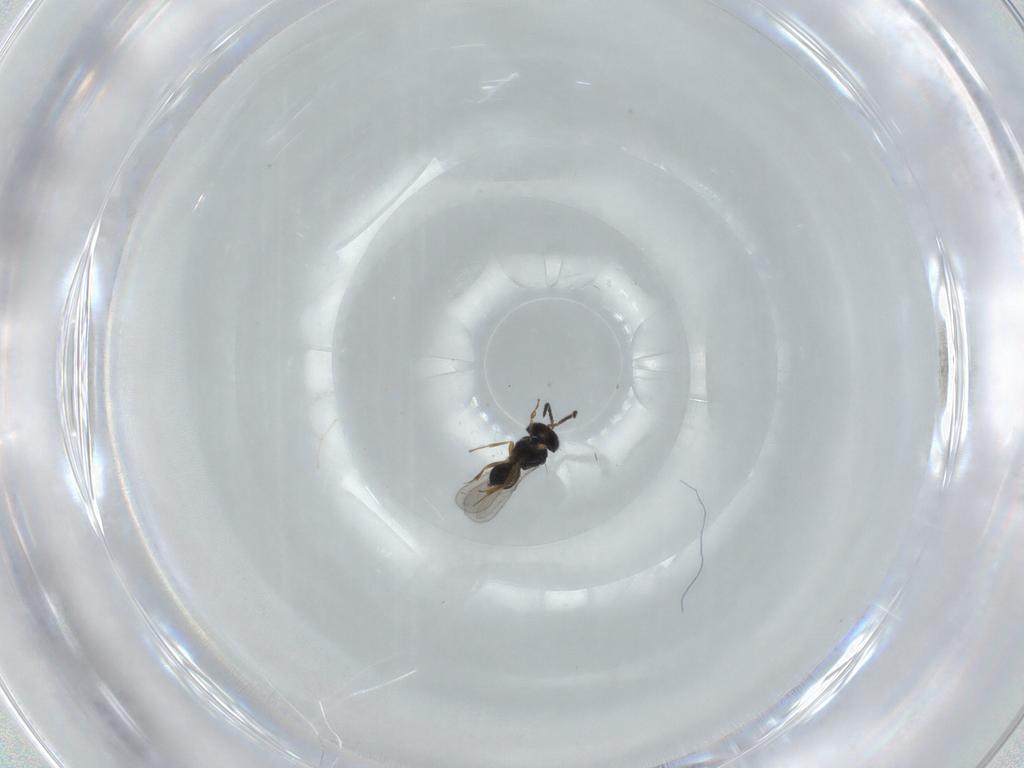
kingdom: Animalia
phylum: Arthropoda
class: Insecta
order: Hymenoptera
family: Scelionidae
